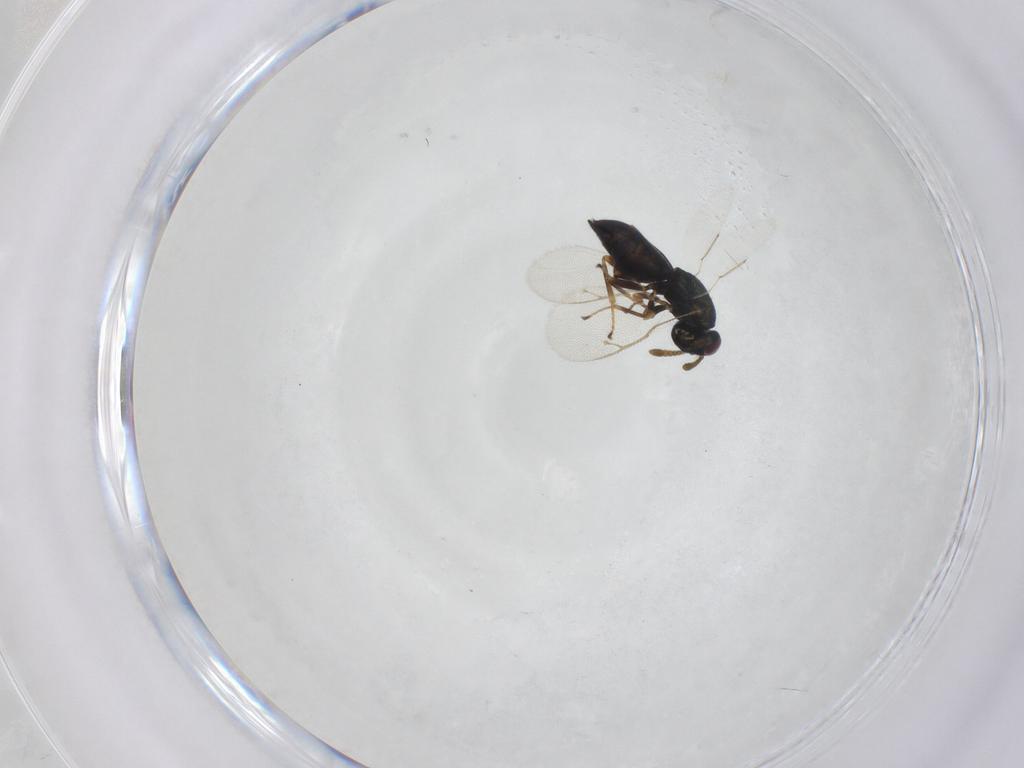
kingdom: Animalia
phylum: Arthropoda
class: Insecta
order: Hymenoptera
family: Pteromalidae
